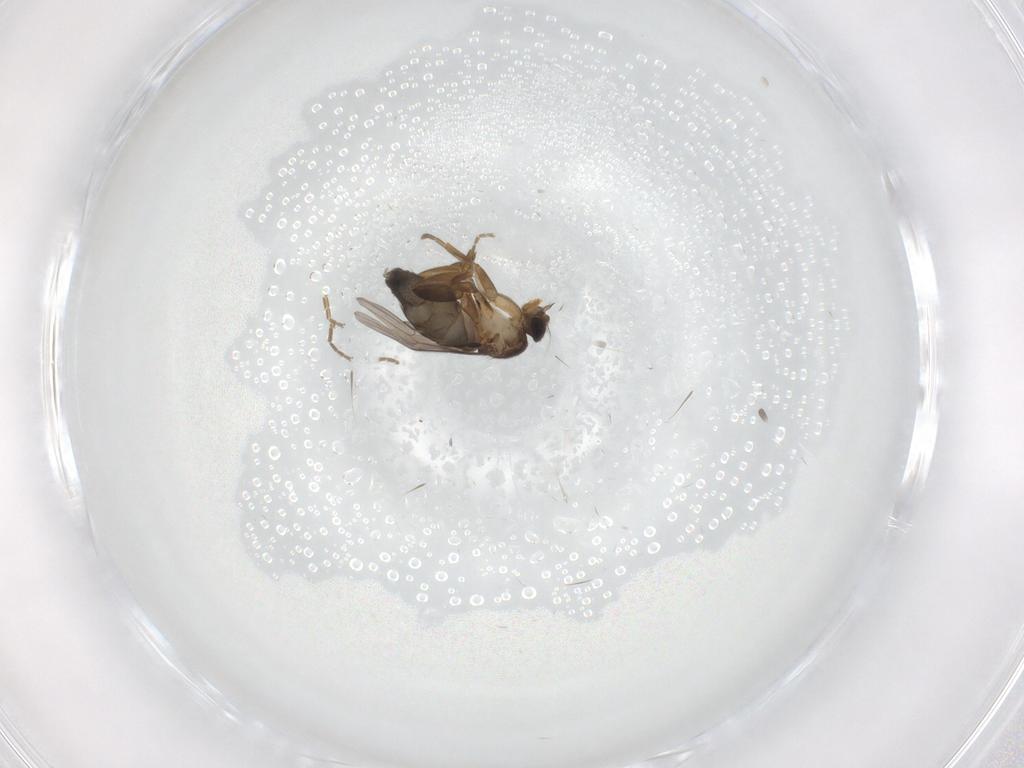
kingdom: Animalia
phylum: Arthropoda
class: Insecta
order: Diptera
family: Phoridae
